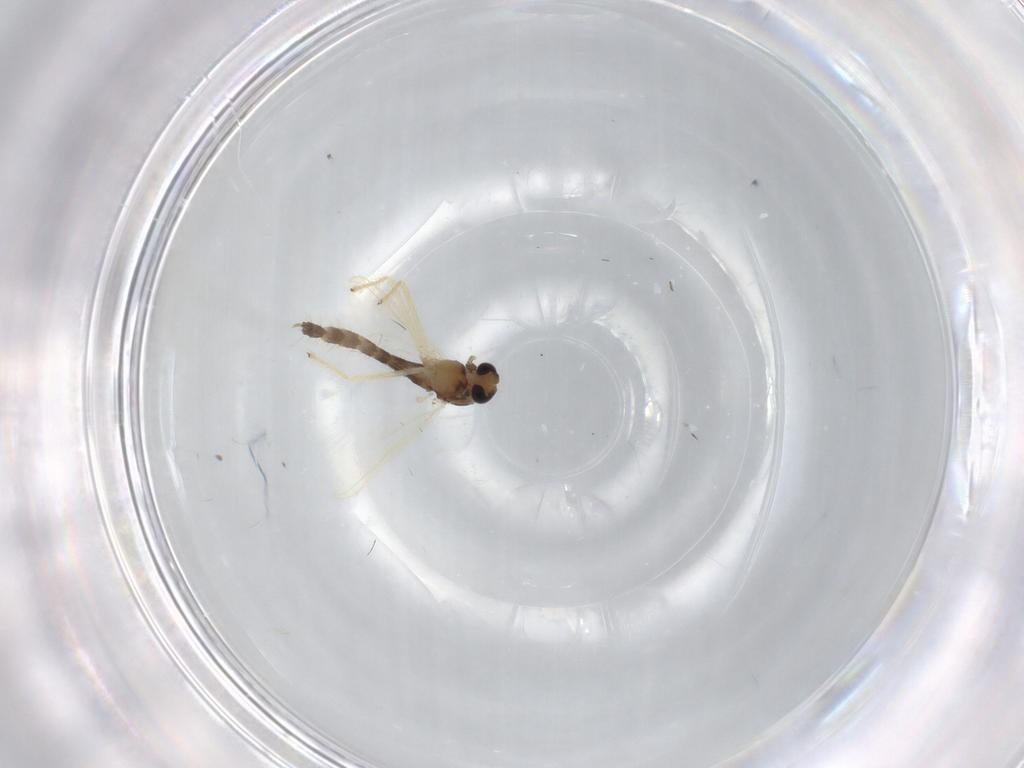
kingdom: Animalia
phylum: Arthropoda
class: Insecta
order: Diptera
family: Chironomidae
